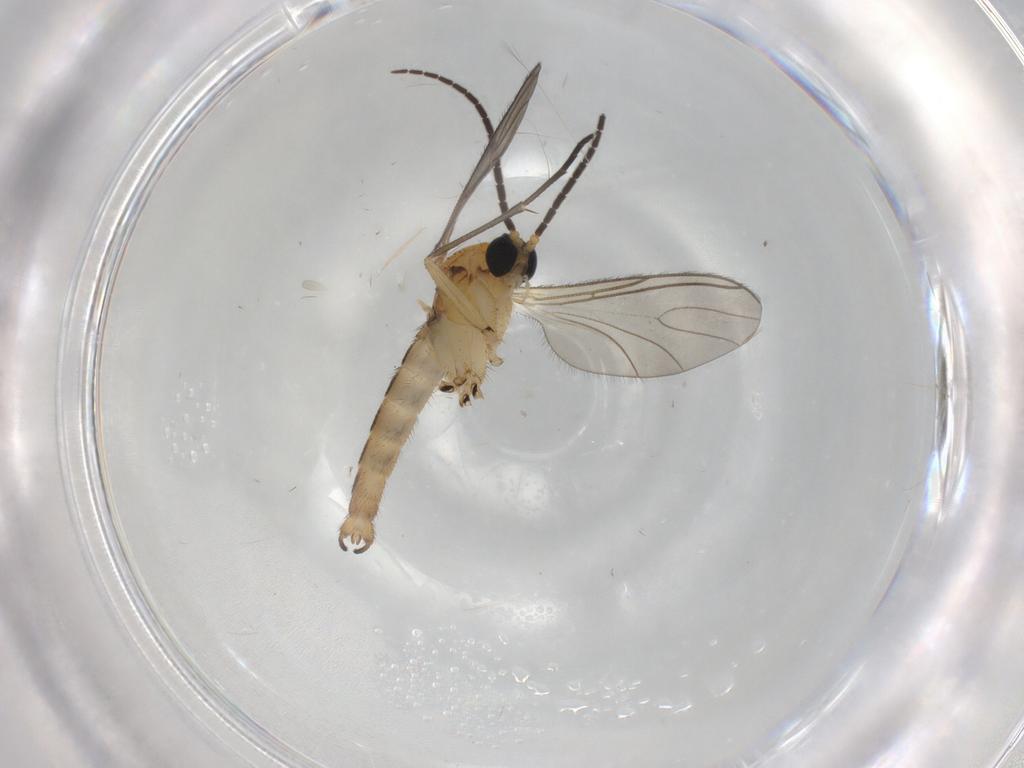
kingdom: Animalia
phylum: Arthropoda
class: Insecta
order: Diptera
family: Sciaridae
